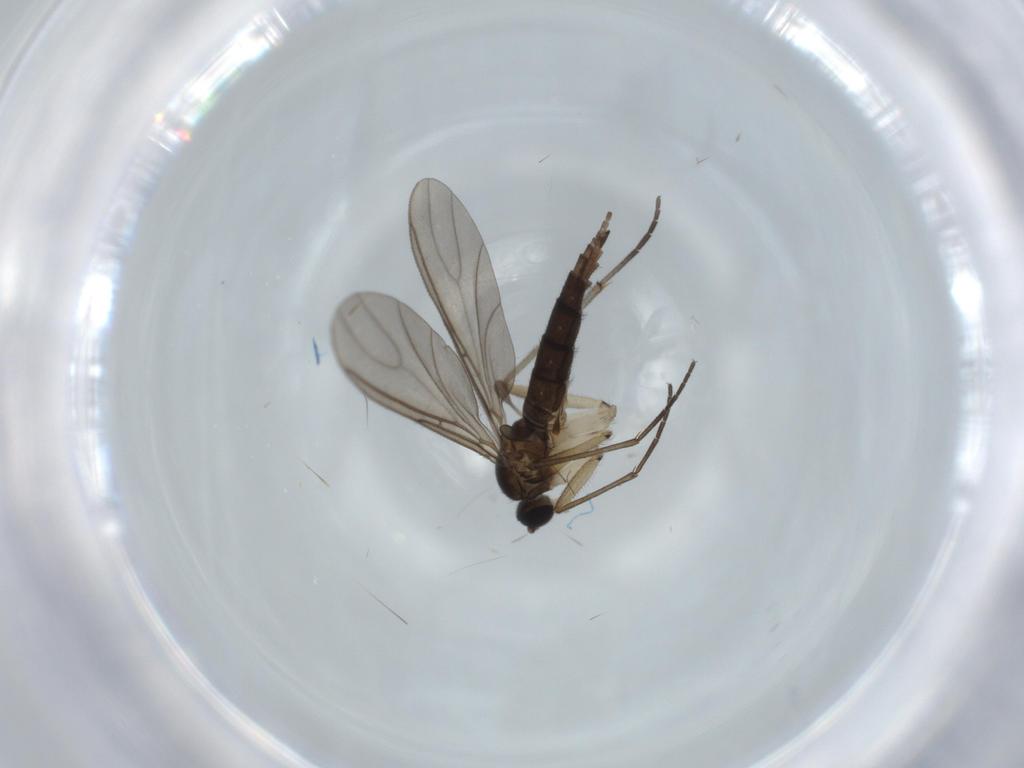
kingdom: Animalia
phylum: Arthropoda
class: Insecta
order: Diptera
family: Sciaridae
